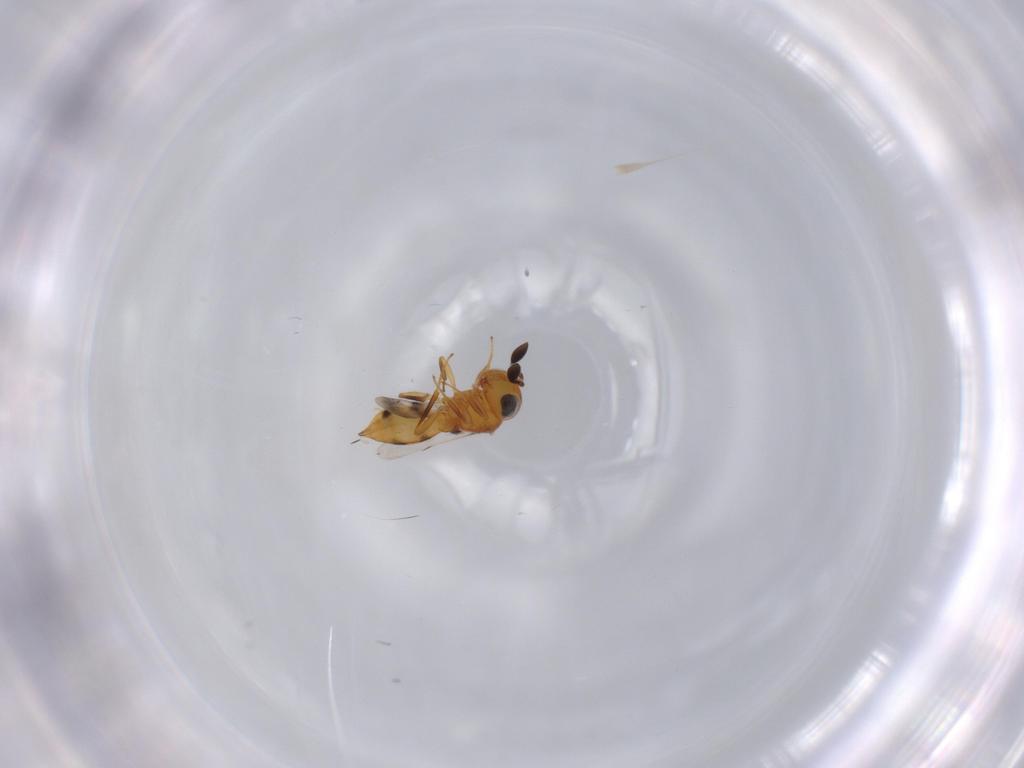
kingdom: Animalia
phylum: Arthropoda
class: Insecta
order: Hymenoptera
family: Scelionidae
